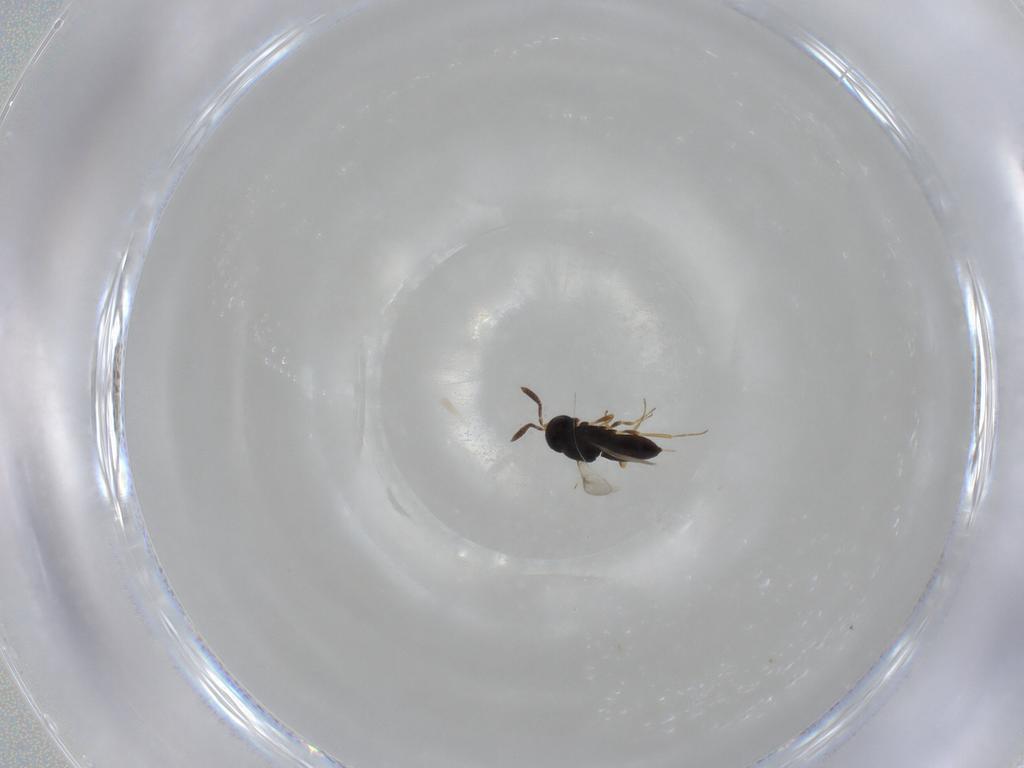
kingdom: Animalia
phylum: Arthropoda
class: Insecta
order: Hymenoptera
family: Scelionidae
